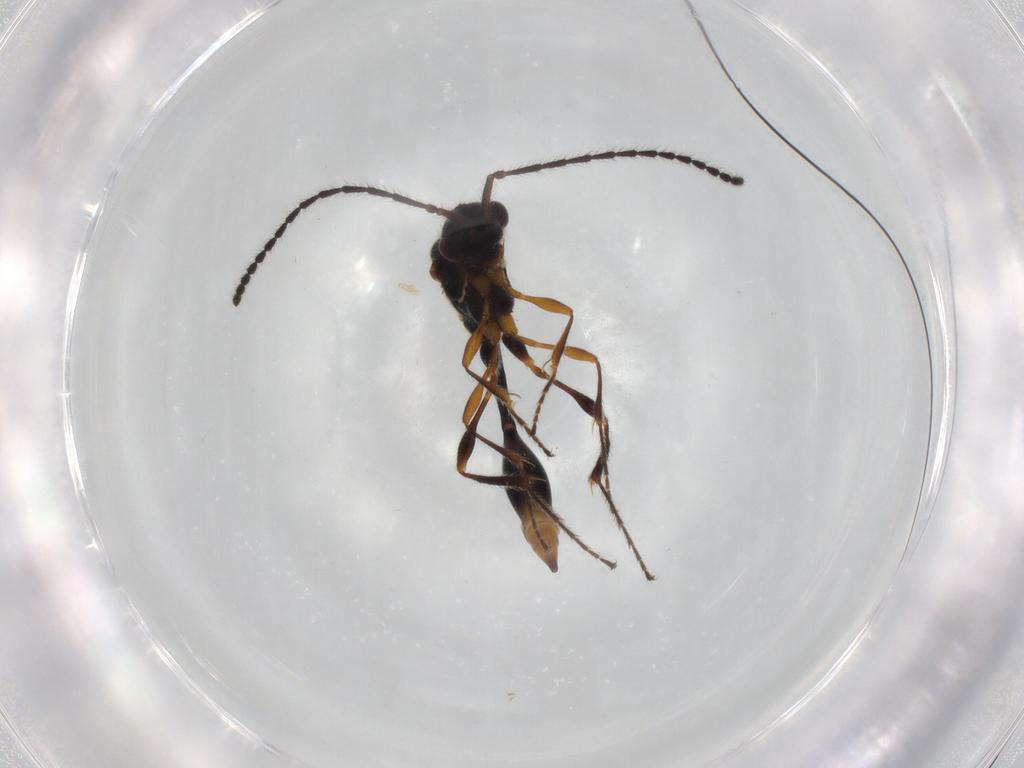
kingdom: Animalia
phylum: Arthropoda
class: Insecta
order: Hymenoptera
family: Diapriidae
